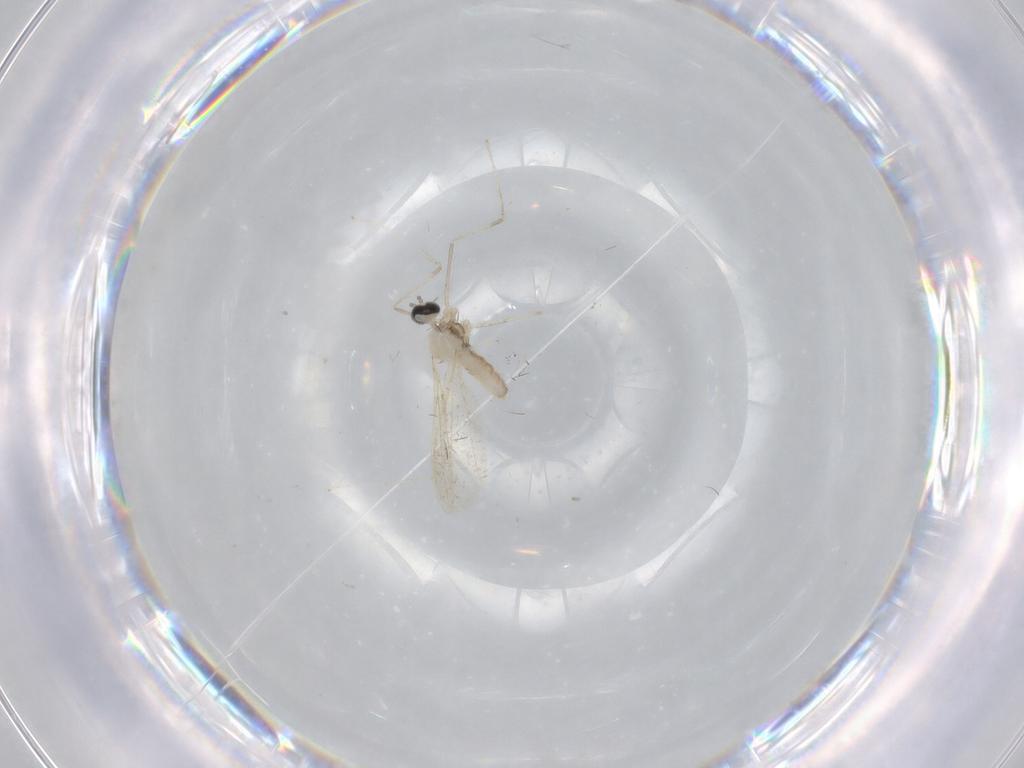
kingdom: Animalia
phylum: Arthropoda
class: Insecta
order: Diptera
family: Cecidomyiidae
